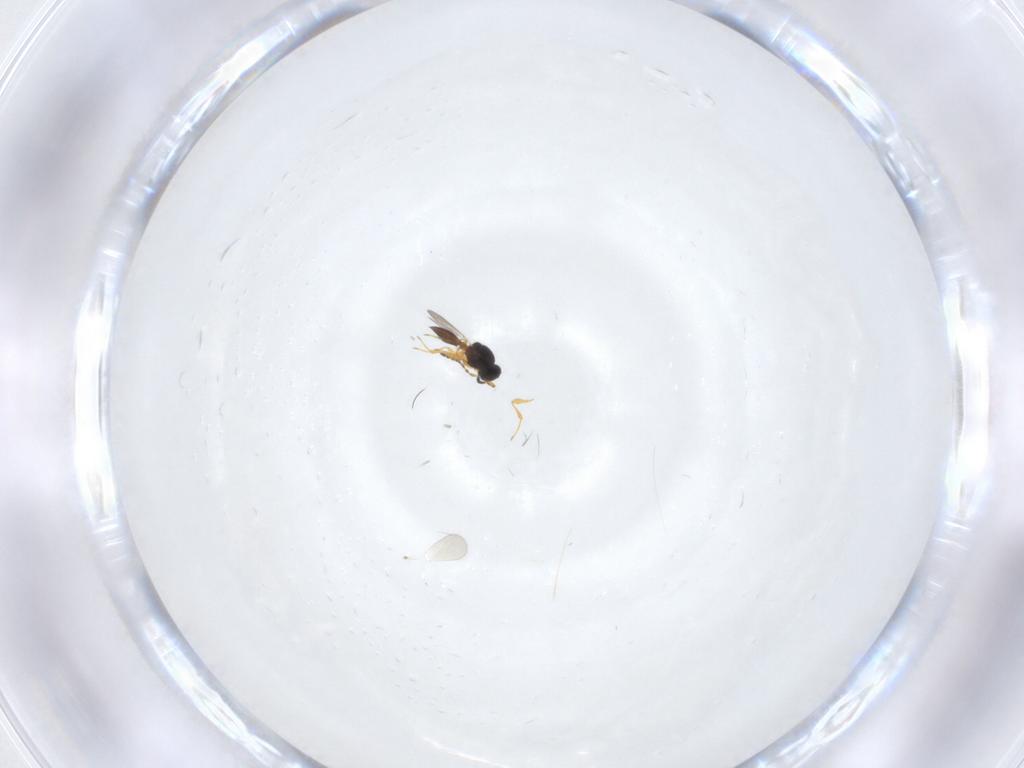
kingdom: Animalia
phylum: Arthropoda
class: Insecta
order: Hymenoptera
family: Platygastridae
